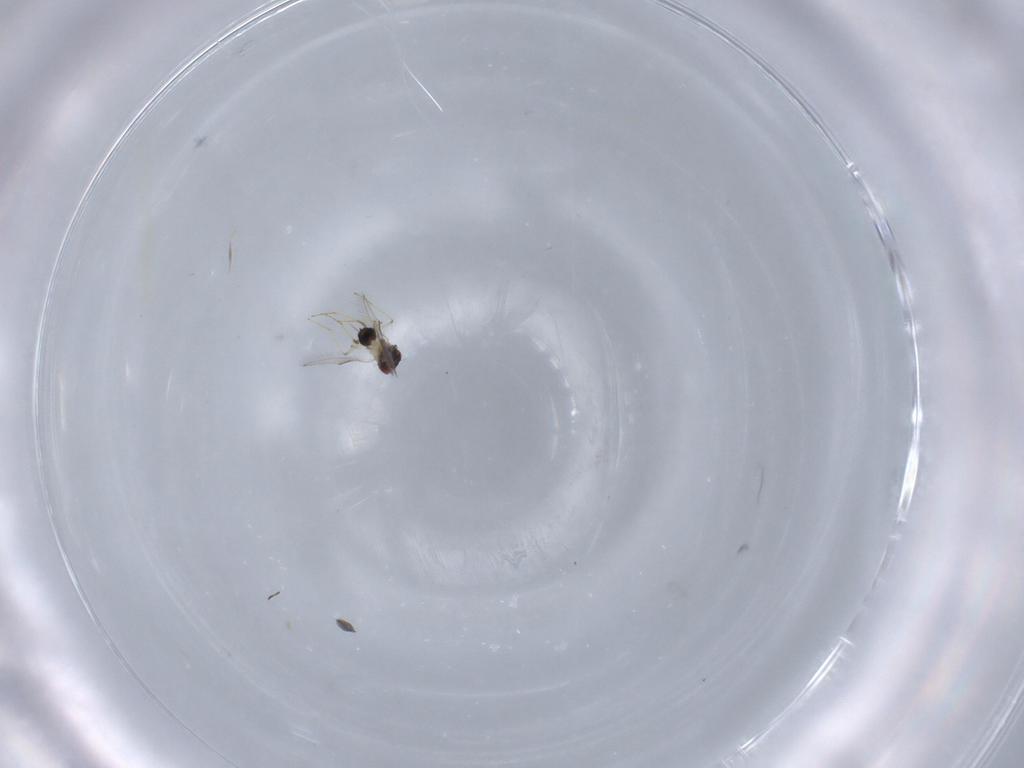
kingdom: Animalia
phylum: Arthropoda
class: Insecta
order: Hymenoptera
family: Eulophidae
